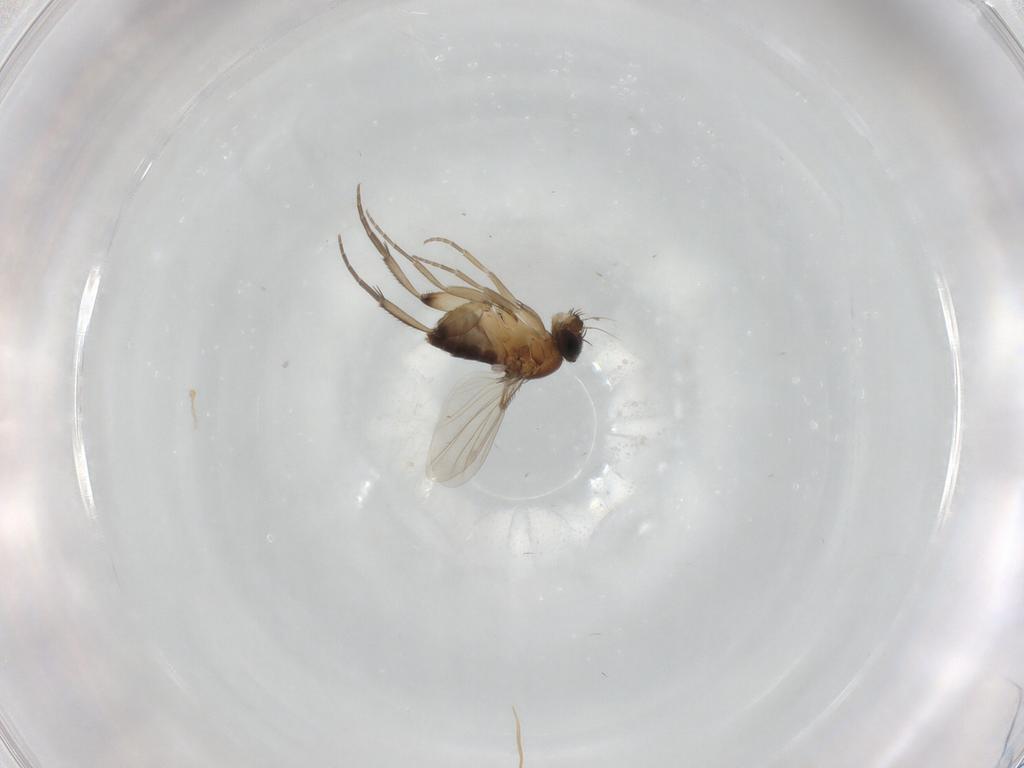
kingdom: Animalia
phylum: Arthropoda
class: Insecta
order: Diptera
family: Phoridae
